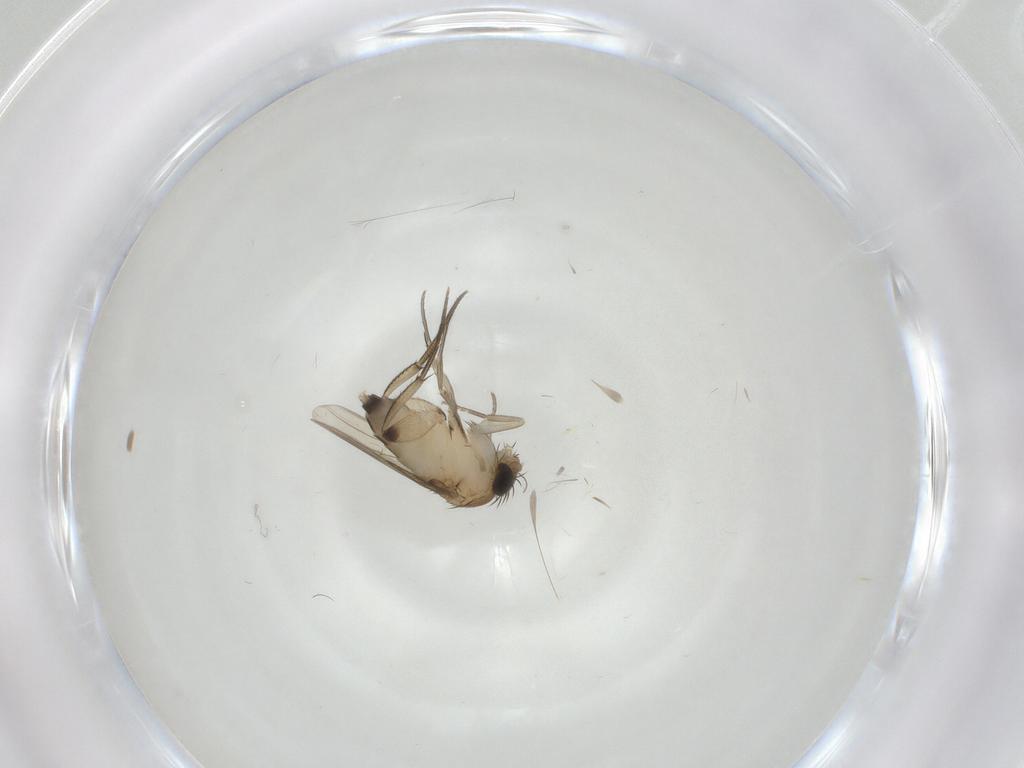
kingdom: Animalia
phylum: Arthropoda
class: Insecta
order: Diptera
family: Phoridae
